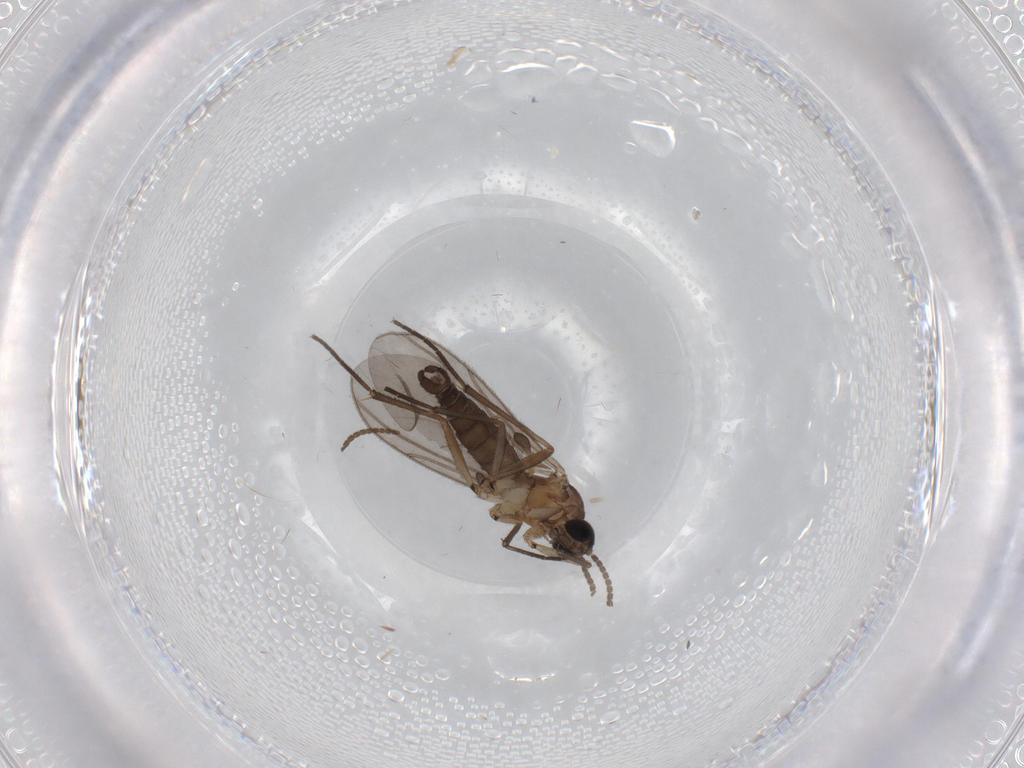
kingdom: Animalia
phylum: Arthropoda
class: Insecta
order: Diptera
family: Sciaridae
